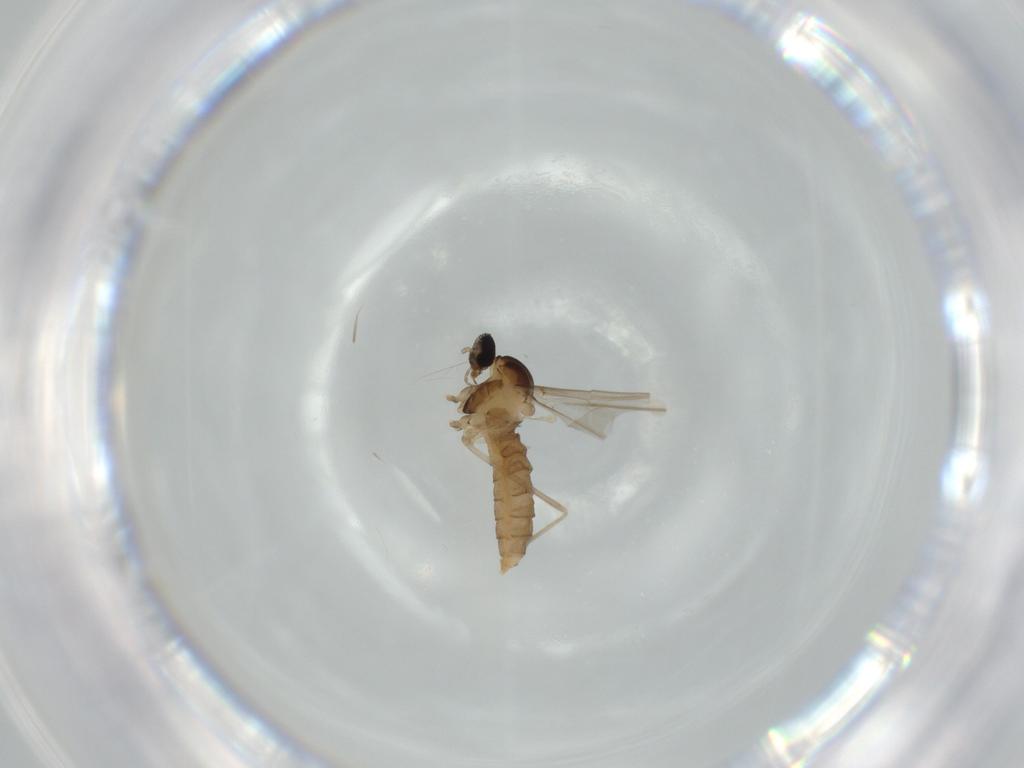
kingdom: Animalia
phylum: Arthropoda
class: Insecta
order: Diptera
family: Cecidomyiidae
